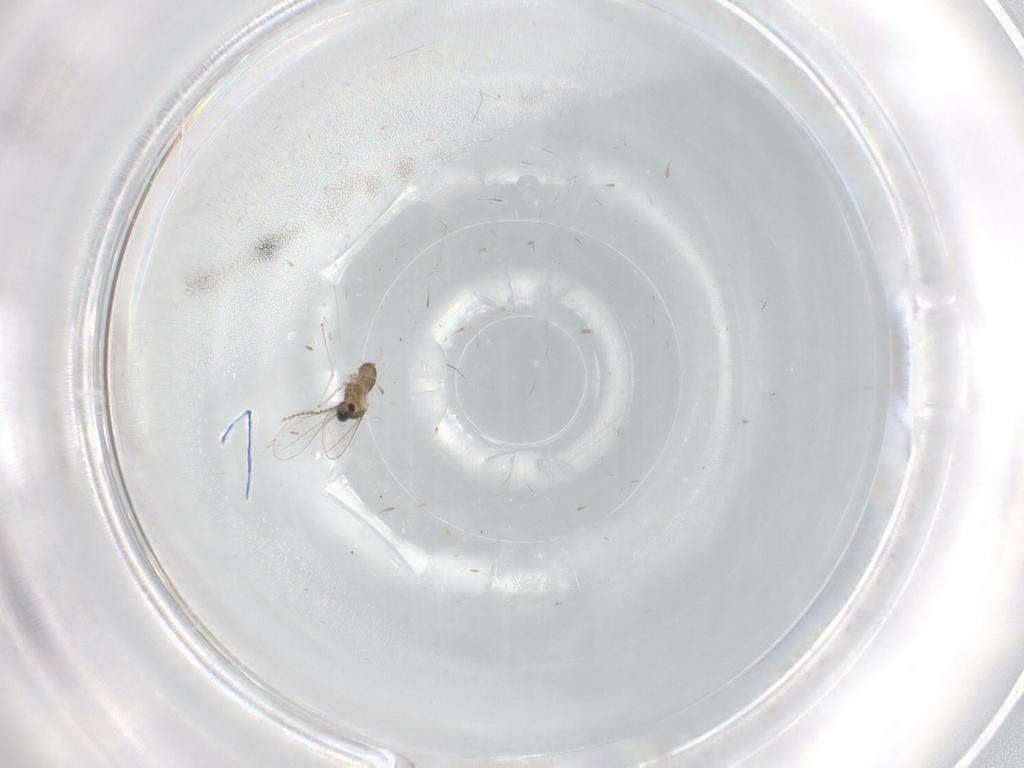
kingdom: Animalia
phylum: Arthropoda
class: Insecta
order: Diptera
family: Cecidomyiidae
